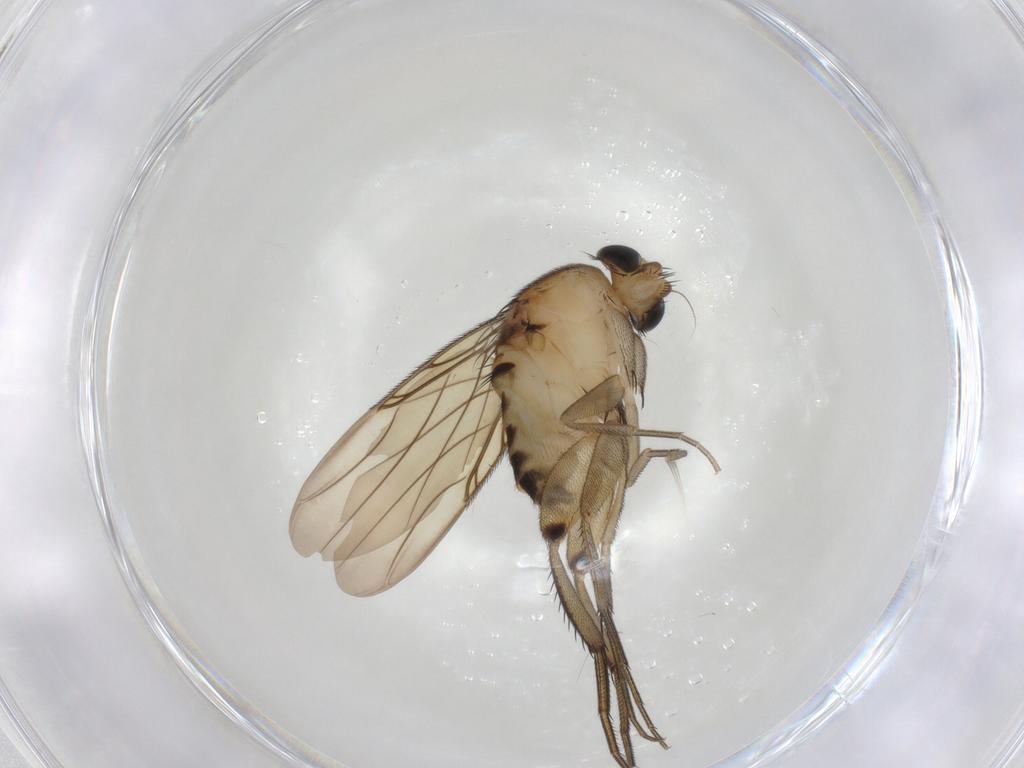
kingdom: Animalia
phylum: Arthropoda
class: Insecta
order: Diptera
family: Phoridae
